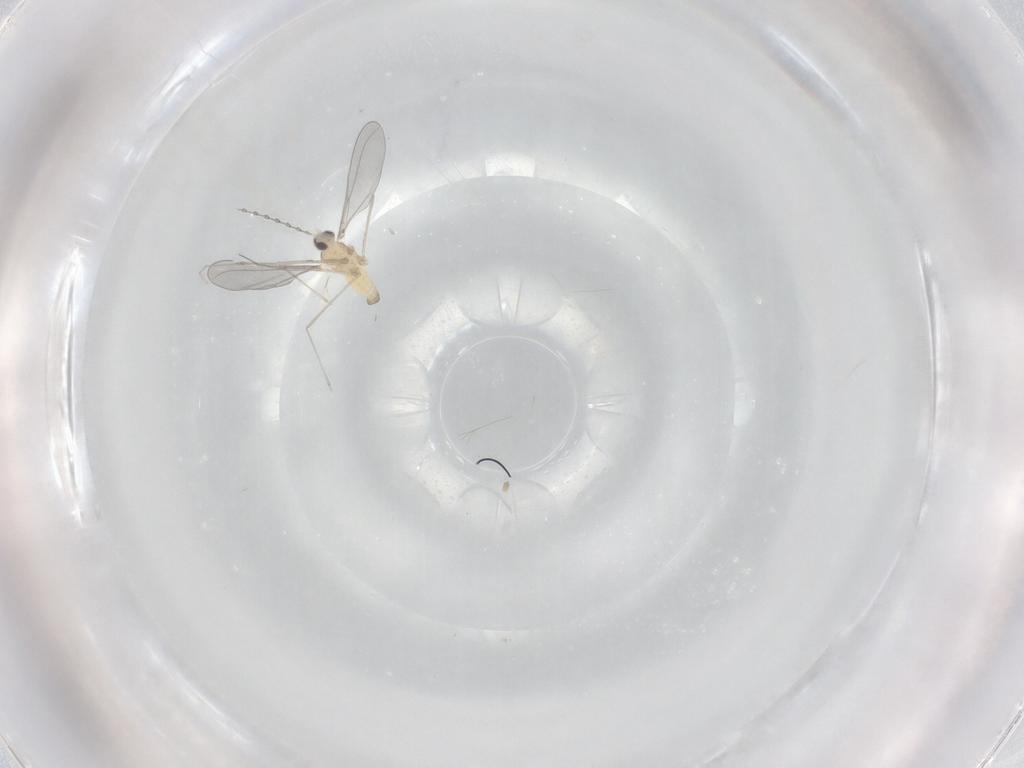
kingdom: Animalia
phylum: Arthropoda
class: Insecta
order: Diptera
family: Cecidomyiidae
